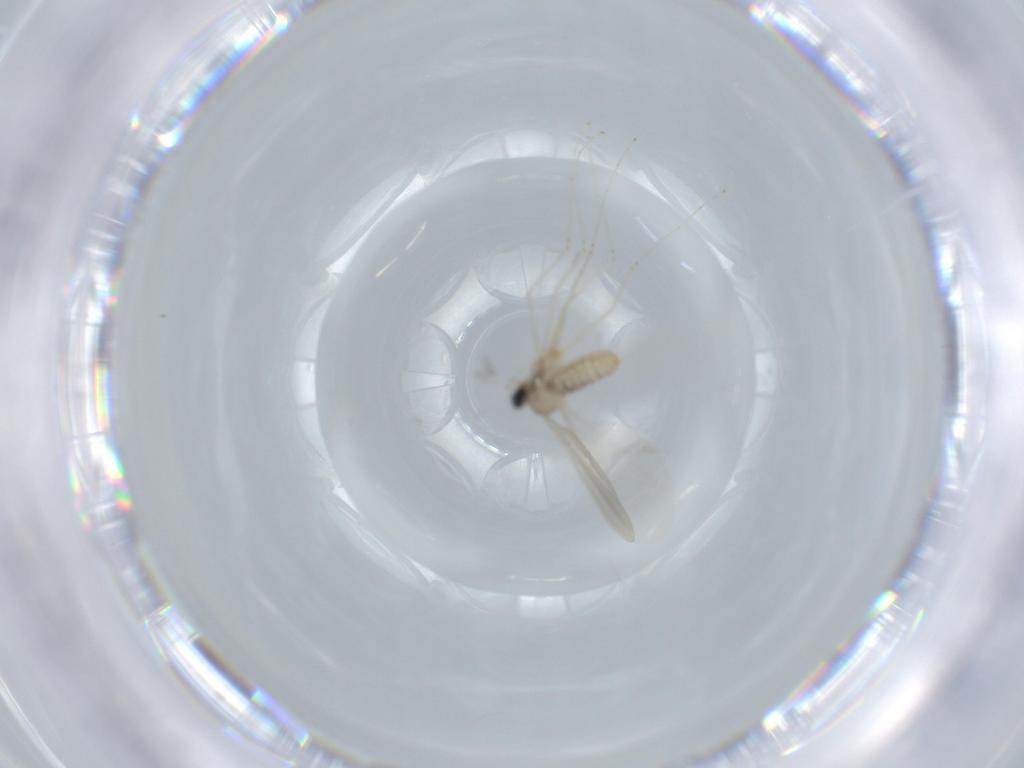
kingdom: Animalia
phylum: Arthropoda
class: Insecta
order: Diptera
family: Cecidomyiidae
